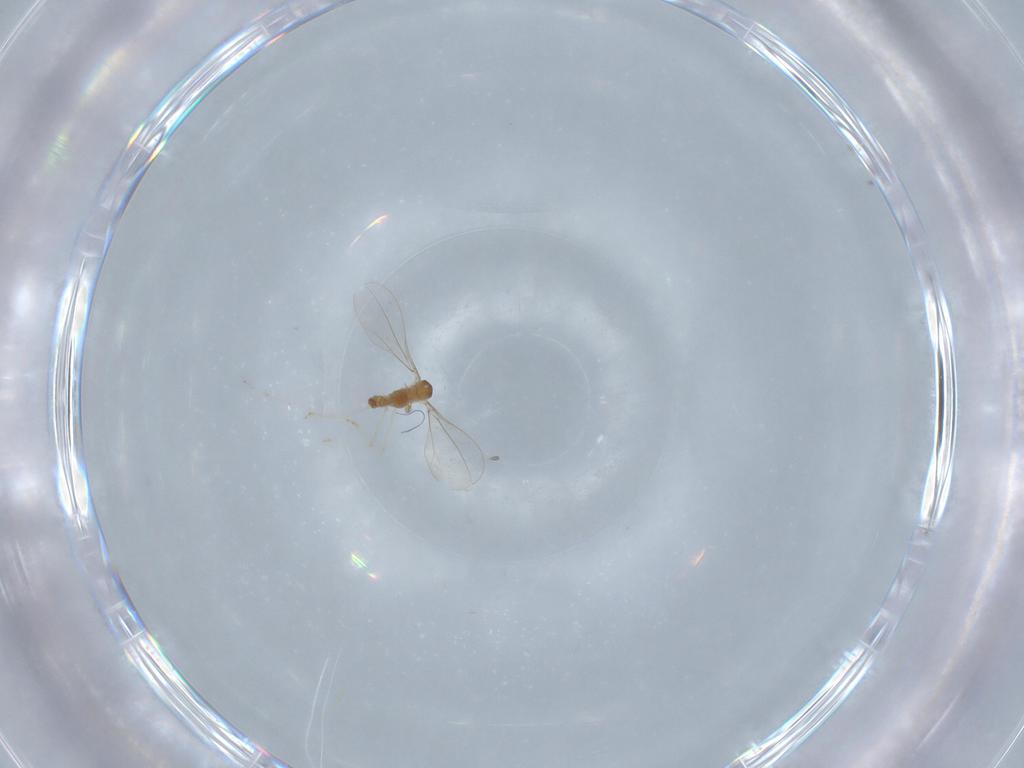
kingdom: Animalia
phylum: Arthropoda
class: Insecta
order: Diptera
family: Cecidomyiidae
